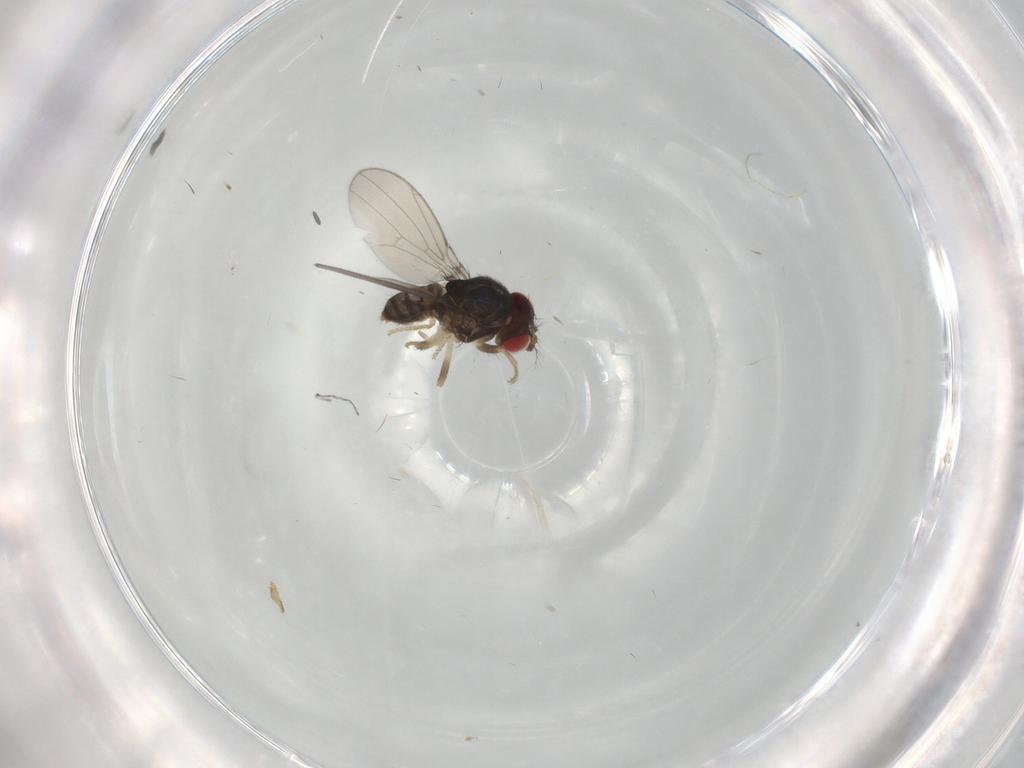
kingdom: Animalia
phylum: Arthropoda
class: Insecta
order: Diptera
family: Drosophilidae
